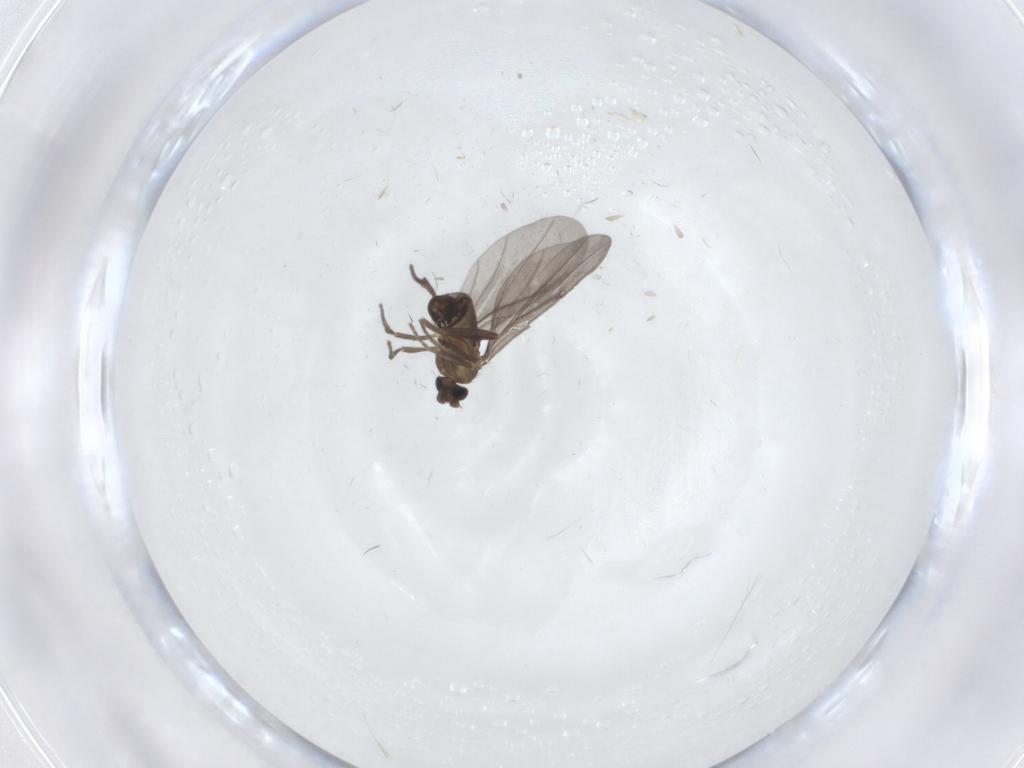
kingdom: Animalia
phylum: Arthropoda
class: Insecta
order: Diptera
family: Phoridae
